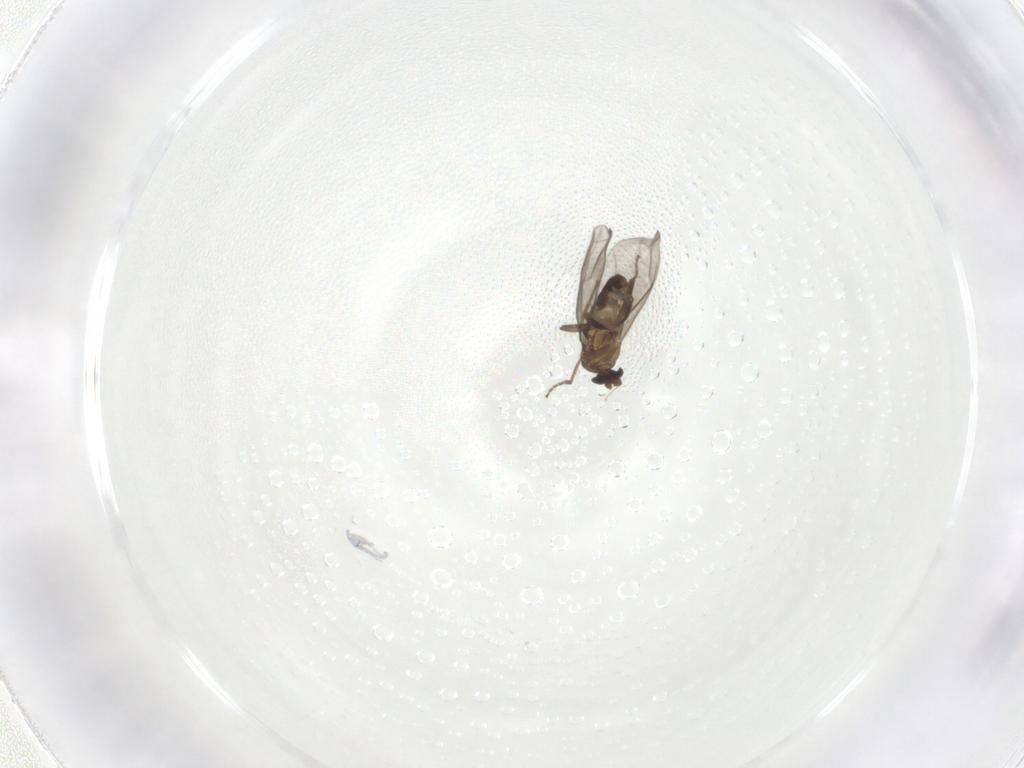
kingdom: Animalia
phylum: Arthropoda
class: Insecta
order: Diptera
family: Phoridae
